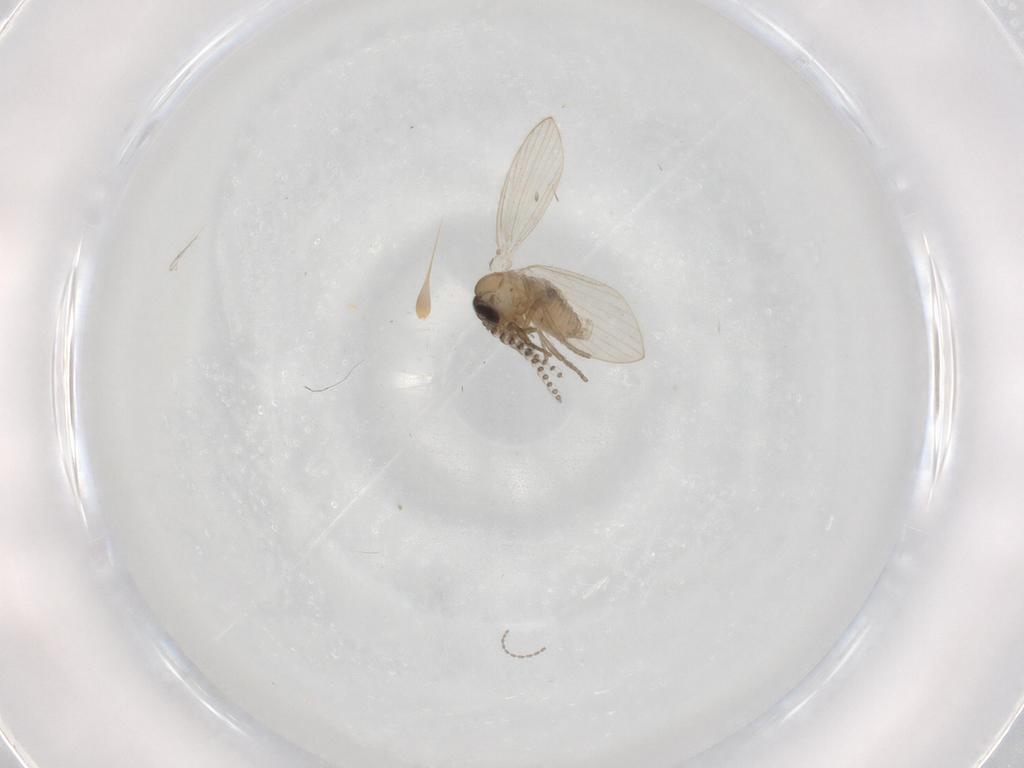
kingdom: Animalia
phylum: Arthropoda
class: Insecta
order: Diptera
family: Psychodidae
